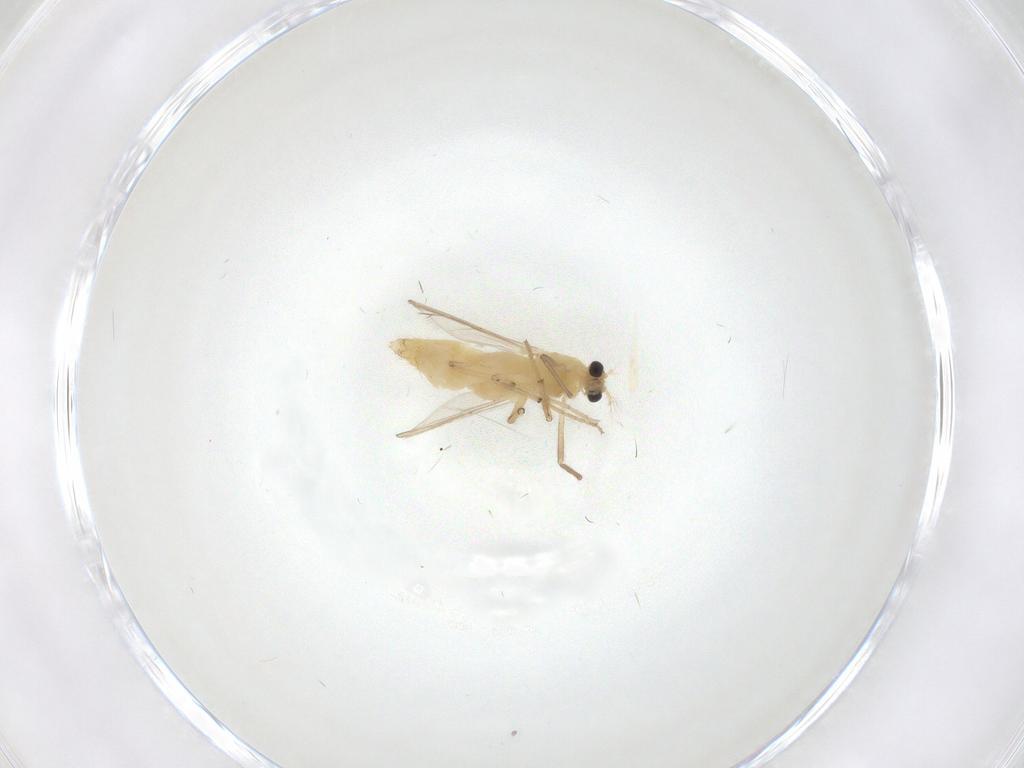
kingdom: Animalia
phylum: Arthropoda
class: Insecta
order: Diptera
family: Chironomidae
